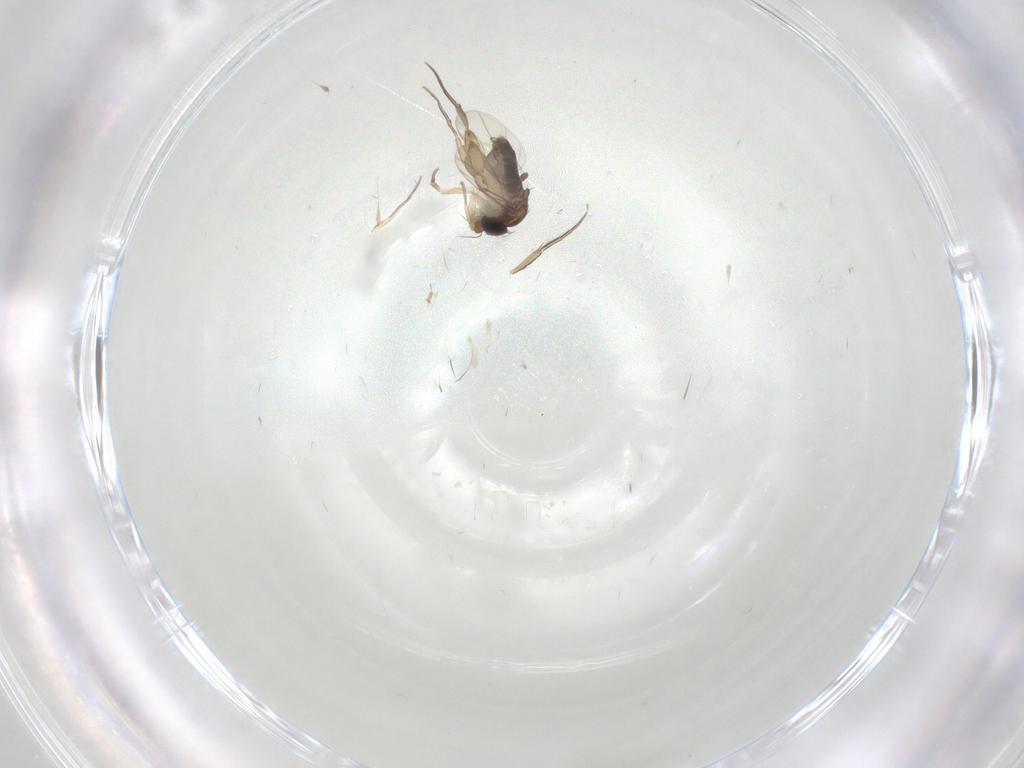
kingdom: Animalia
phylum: Arthropoda
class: Insecta
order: Diptera
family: Phoridae
